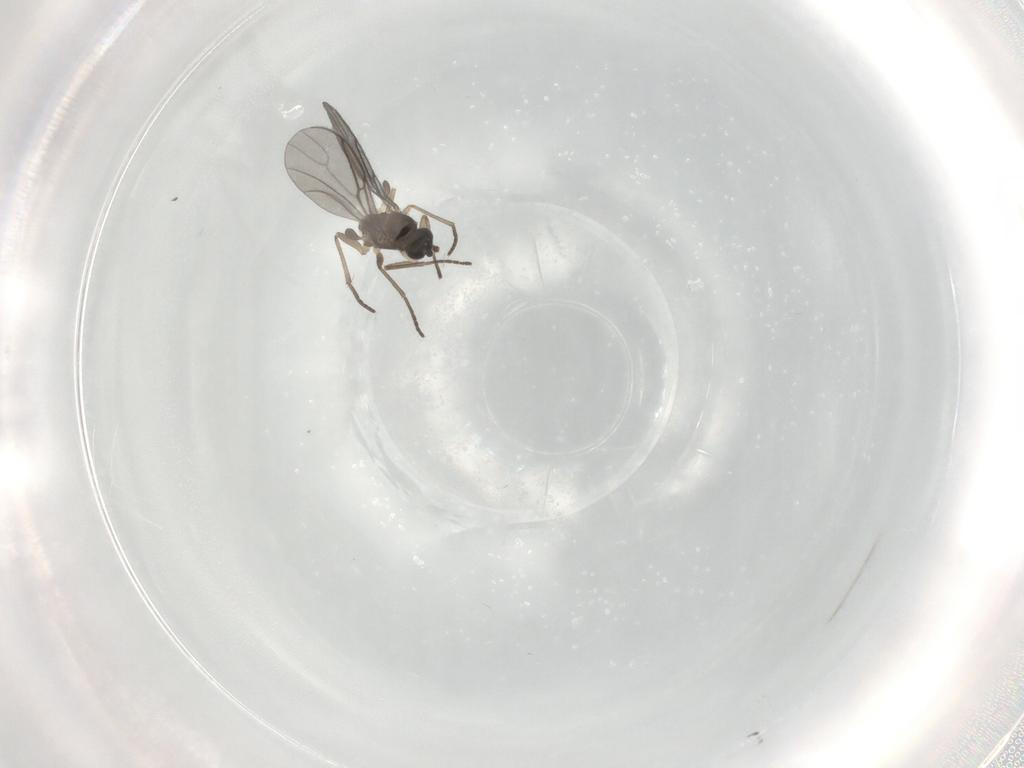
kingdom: Animalia
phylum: Arthropoda
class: Insecta
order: Diptera
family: Sciaridae
